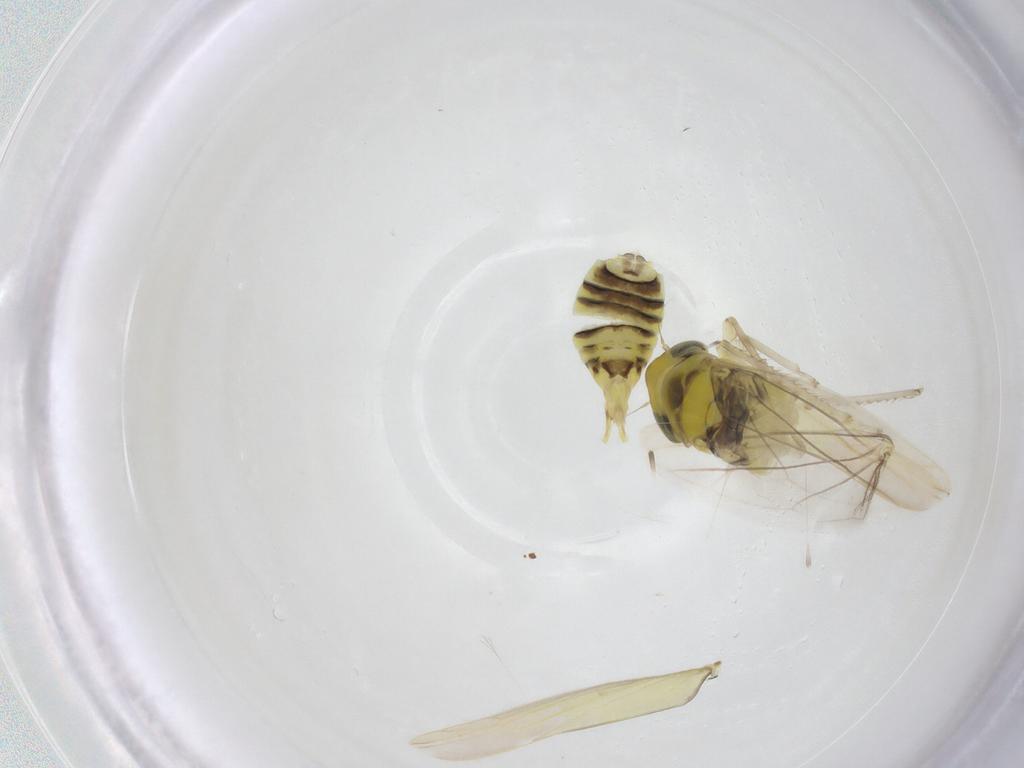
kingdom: Animalia
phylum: Arthropoda
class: Insecta
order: Hemiptera
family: Cicadellidae
